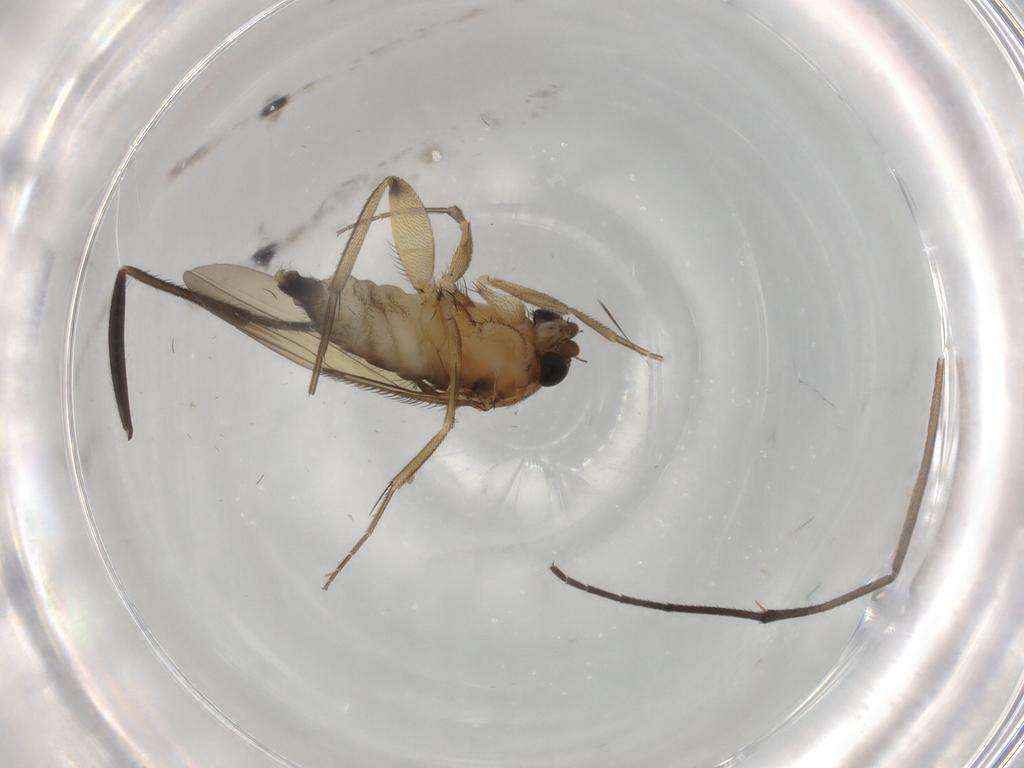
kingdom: Animalia
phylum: Arthropoda
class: Insecta
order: Diptera
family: Phoridae
